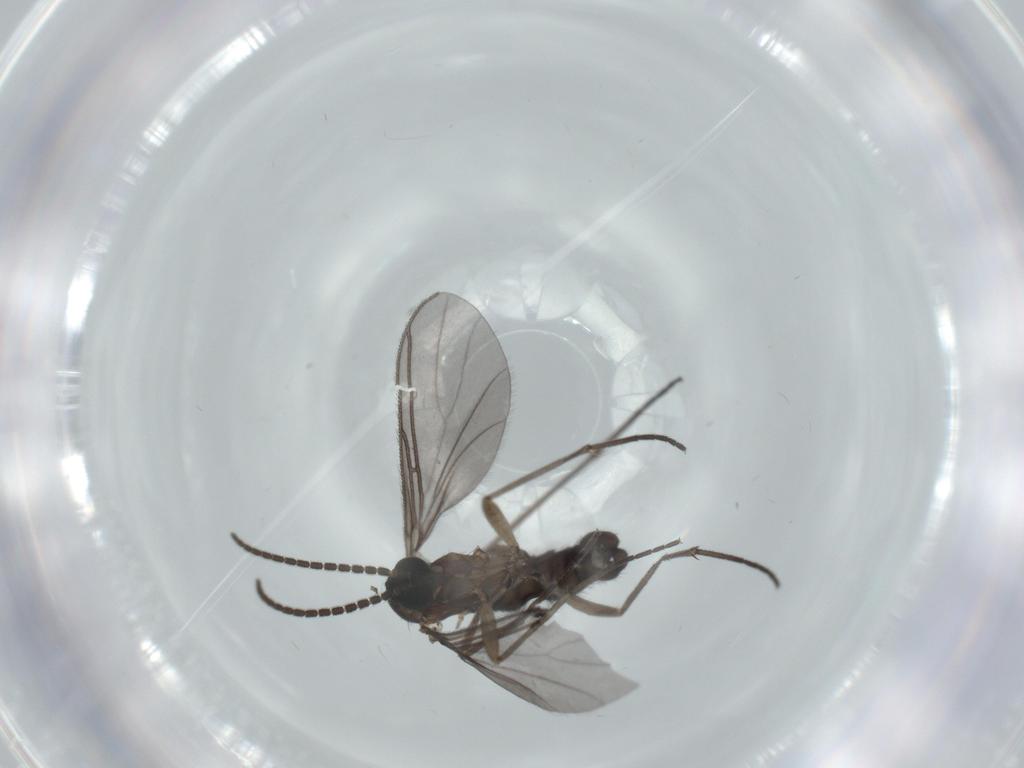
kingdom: Animalia
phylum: Arthropoda
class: Insecta
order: Diptera
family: Sciaridae
